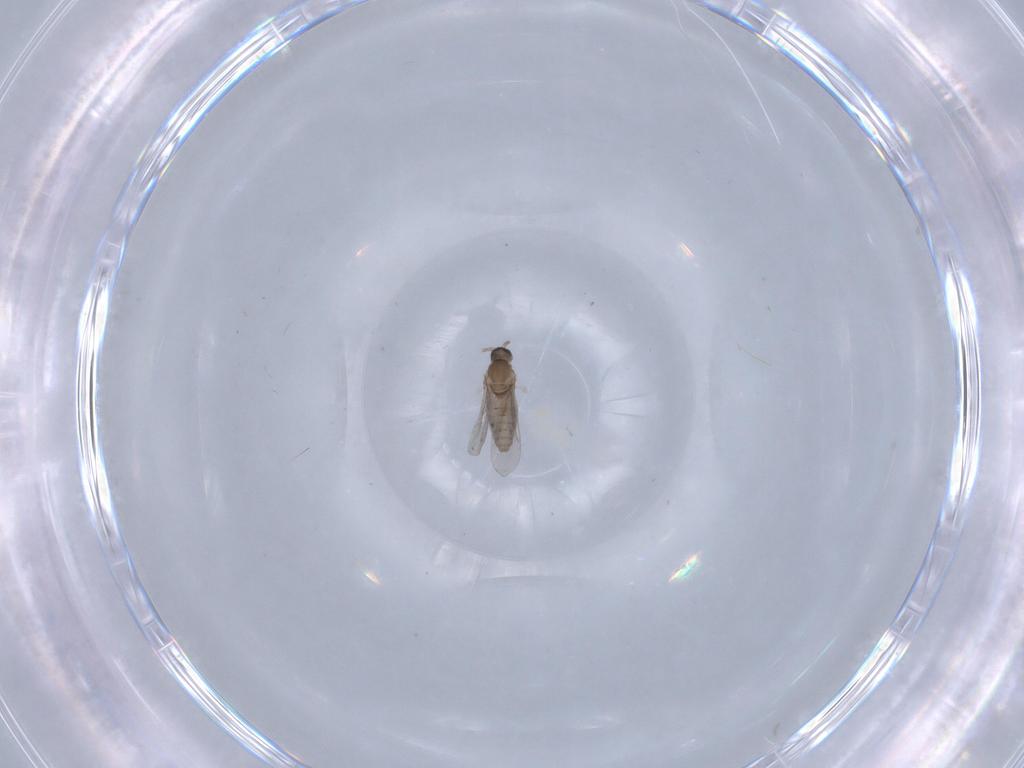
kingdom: Animalia
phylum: Arthropoda
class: Insecta
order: Diptera
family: Cecidomyiidae
